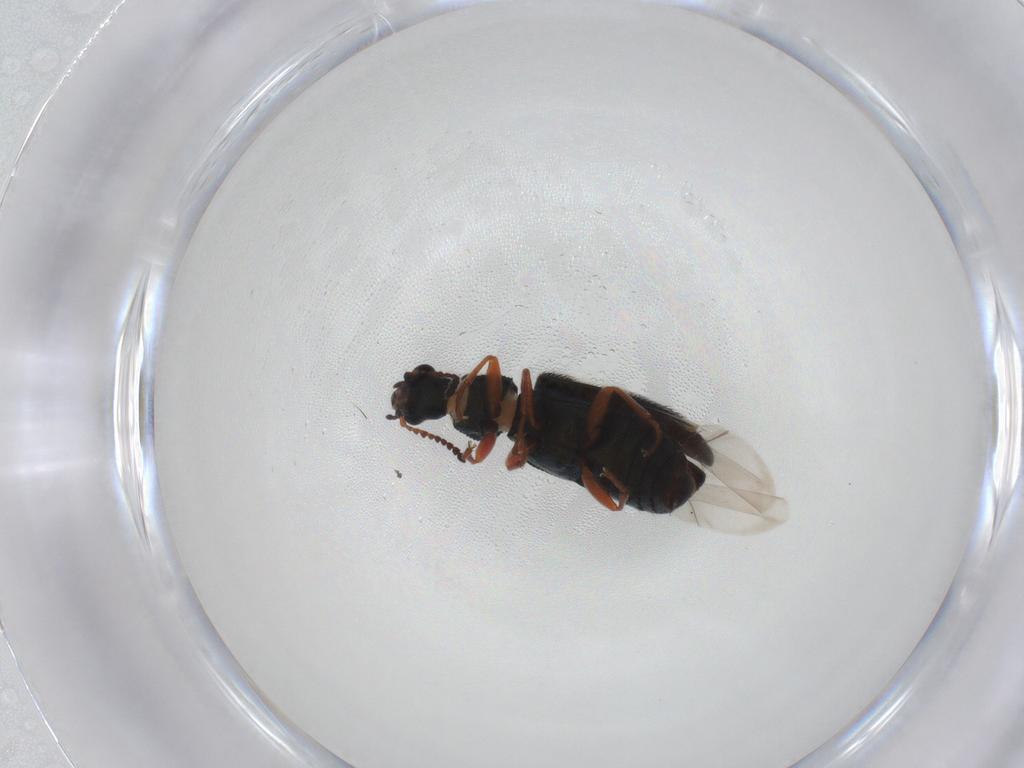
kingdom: Animalia
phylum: Arthropoda
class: Insecta
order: Coleoptera
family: Melyridae
